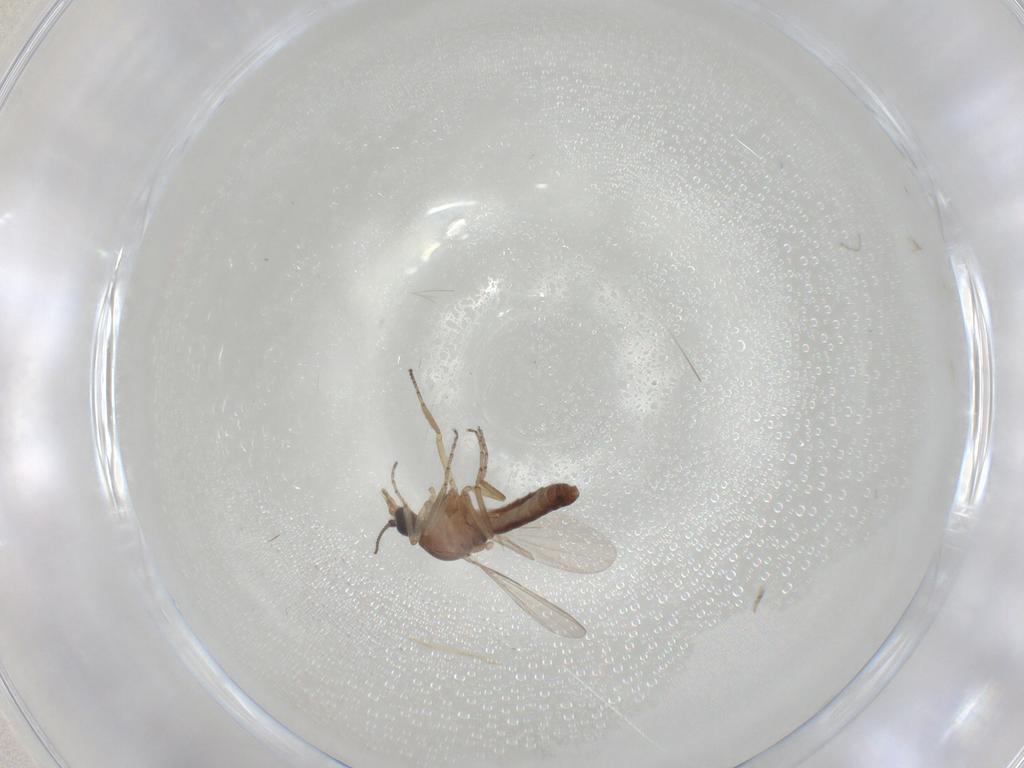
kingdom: Animalia
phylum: Arthropoda
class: Insecta
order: Diptera
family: Ceratopogonidae
